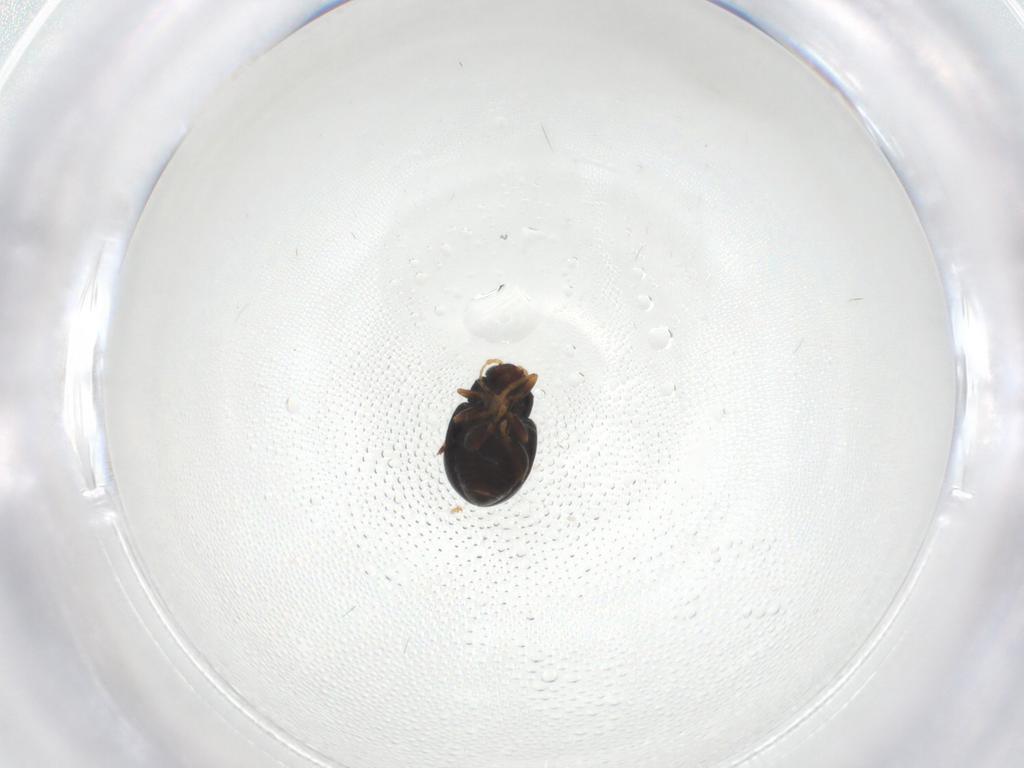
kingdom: Animalia
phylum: Arthropoda
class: Insecta
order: Coleoptera
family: Chrysomelidae
